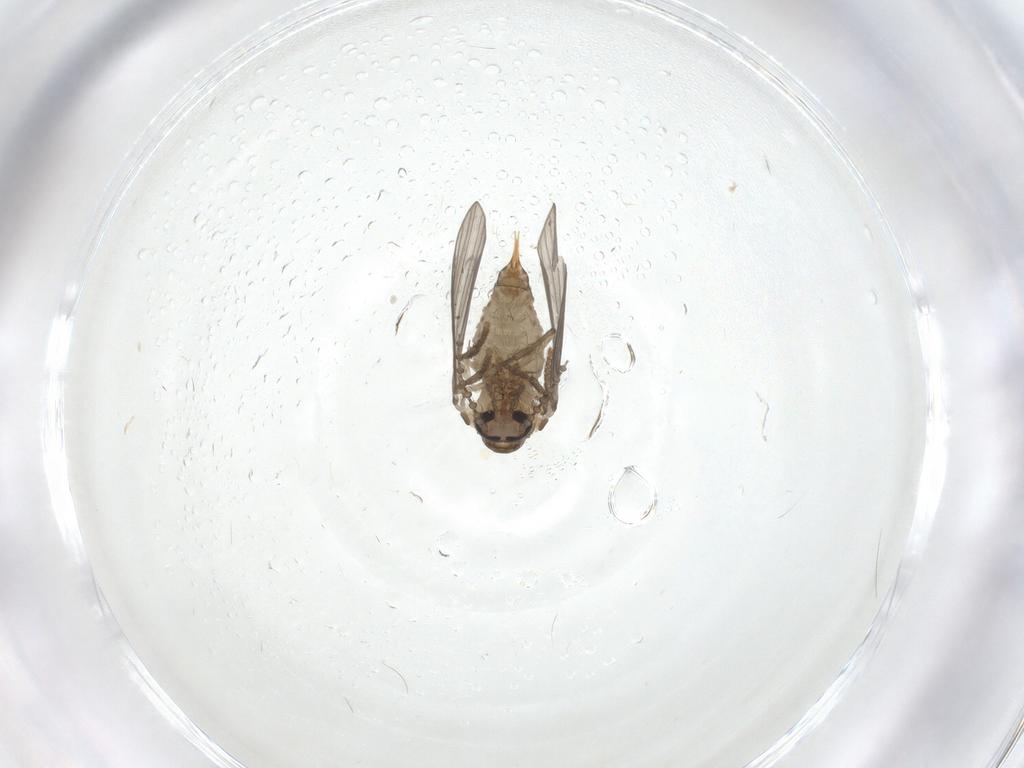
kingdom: Animalia
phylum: Arthropoda
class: Insecta
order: Diptera
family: Psychodidae
